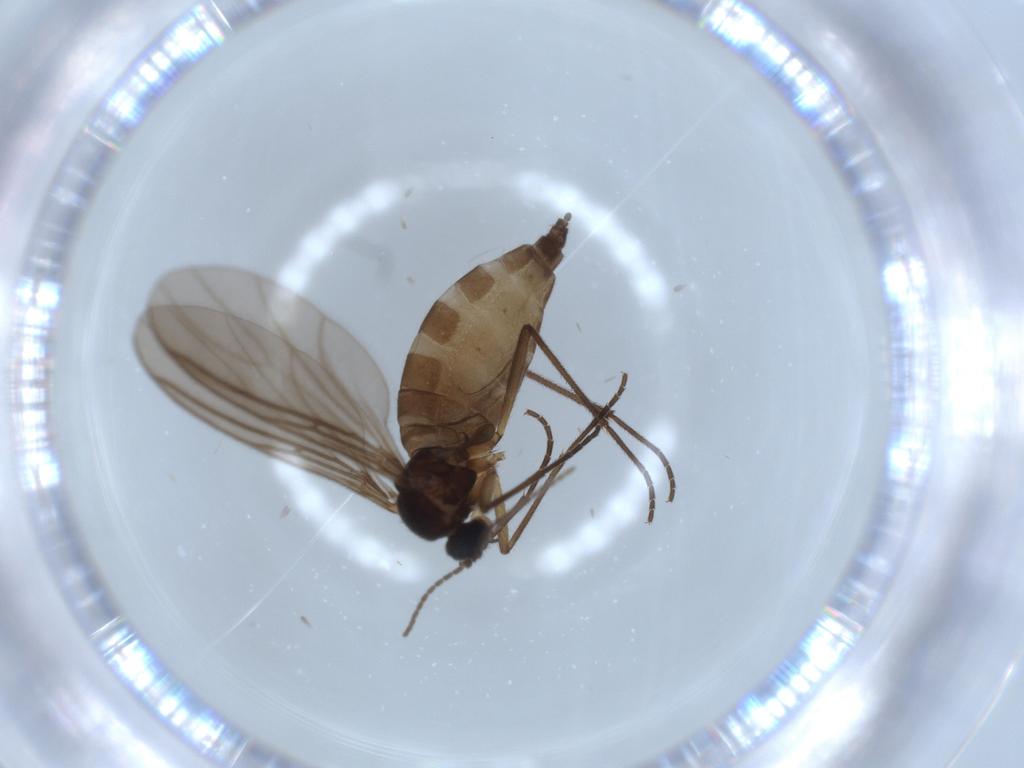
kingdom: Animalia
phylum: Arthropoda
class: Insecta
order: Diptera
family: Sciaridae
